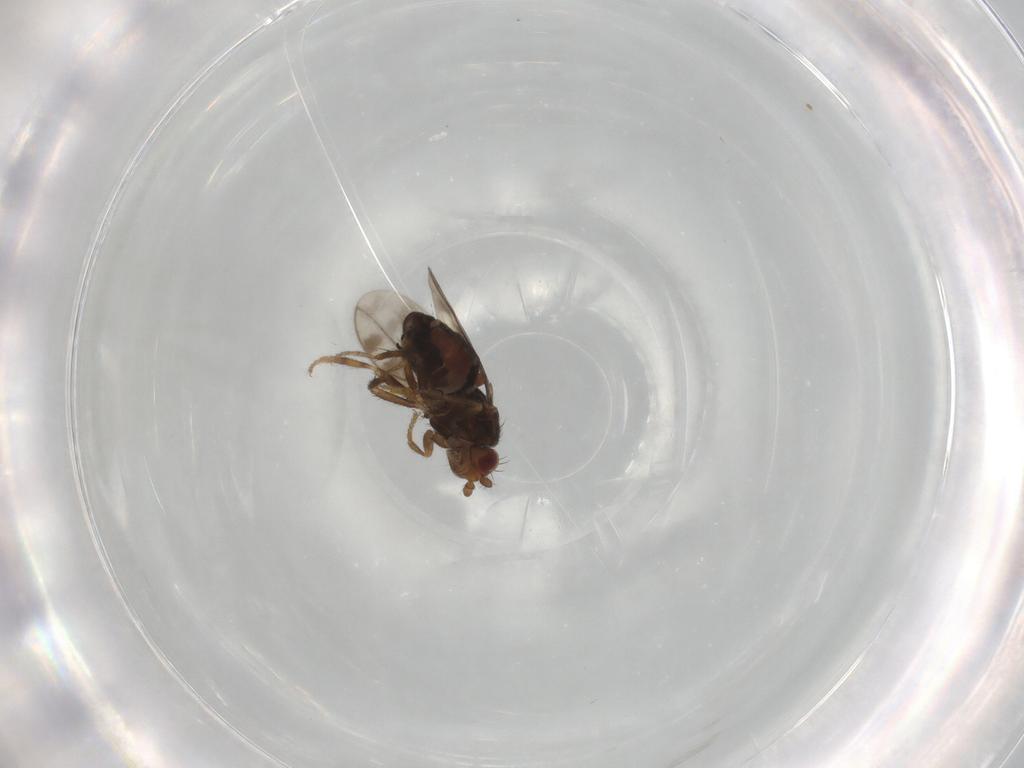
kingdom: Animalia
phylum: Arthropoda
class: Insecta
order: Diptera
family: Sphaeroceridae
